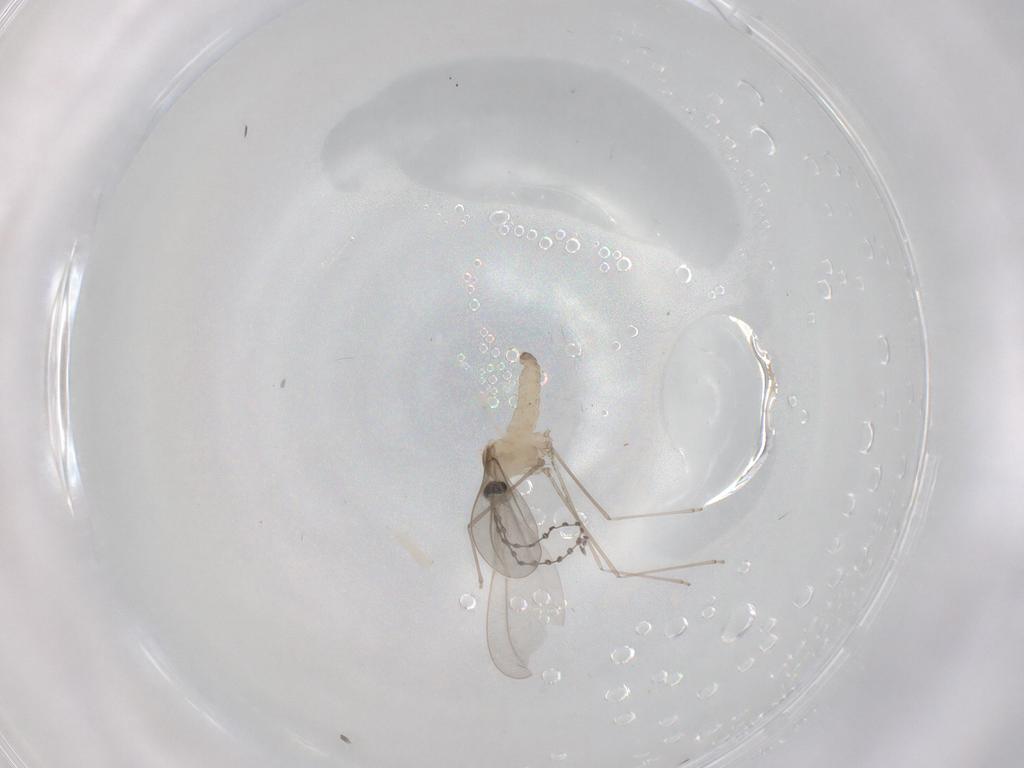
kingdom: Animalia
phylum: Arthropoda
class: Insecta
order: Diptera
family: Cecidomyiidae
